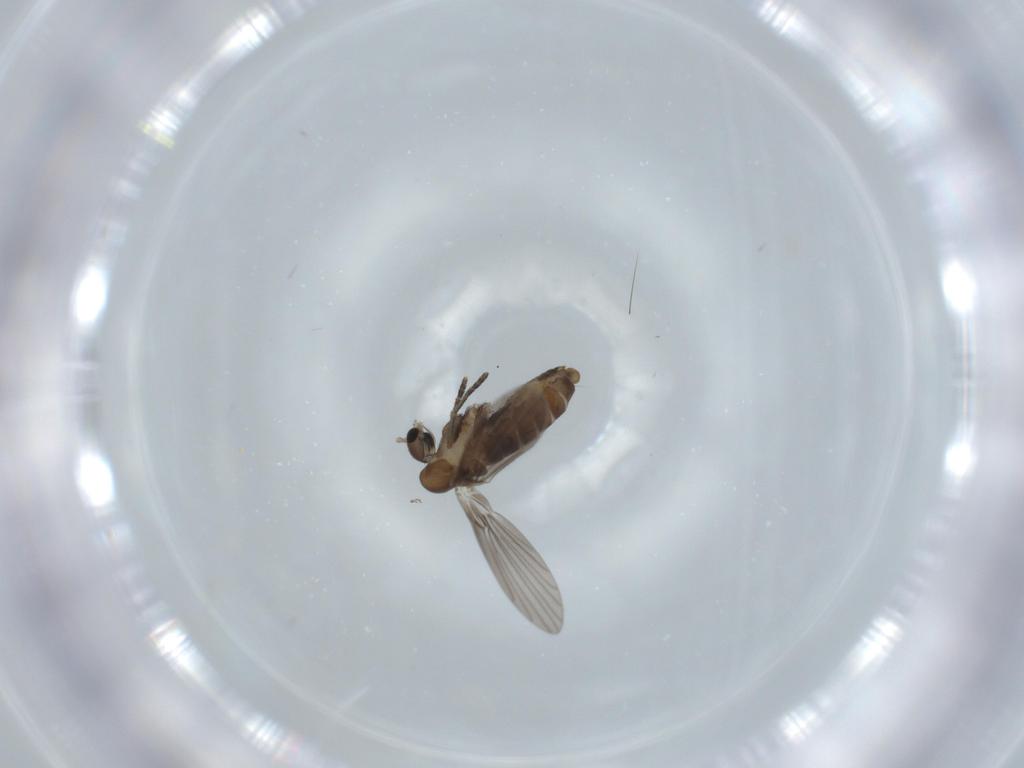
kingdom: Animalia
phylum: Arthropoda
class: Insecta
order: Diptera
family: Psychodidae
